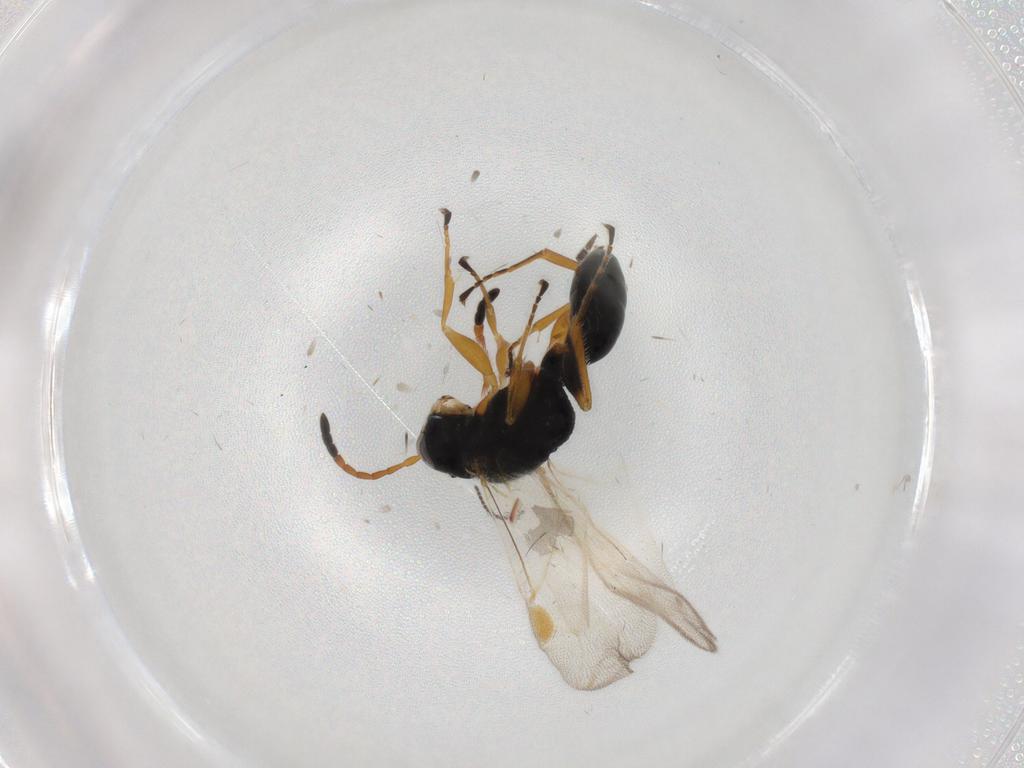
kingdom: Animalia
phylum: Arthropoda
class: Insecta
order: Hymenoptera
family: Dryinidae
